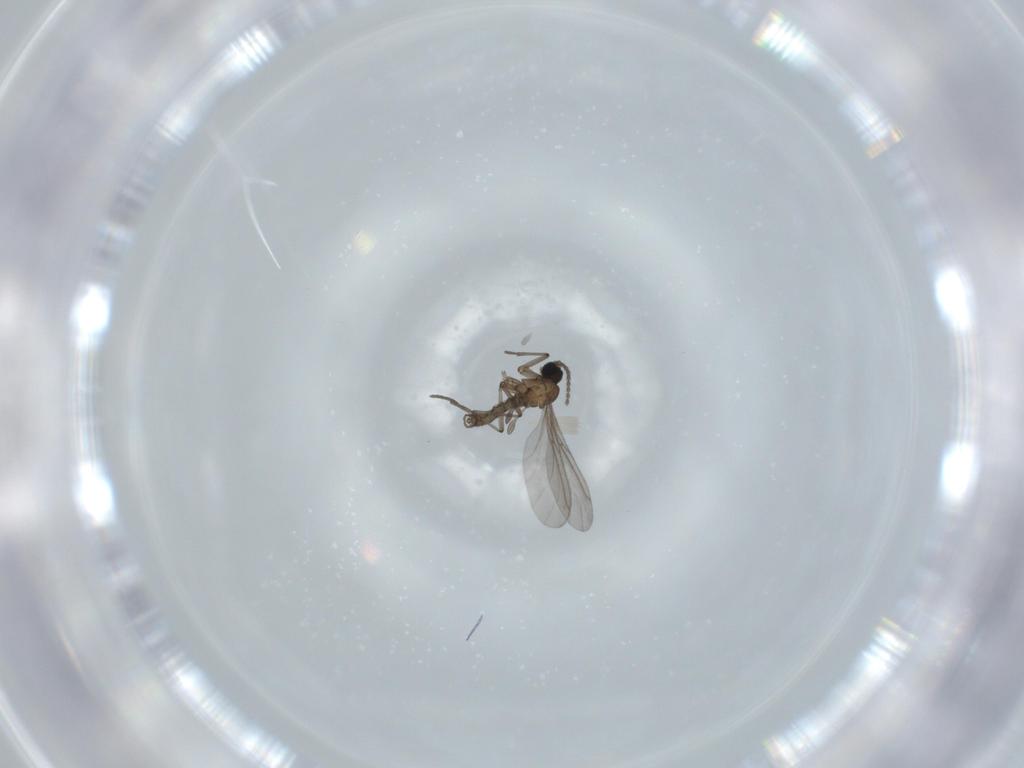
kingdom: Animalia
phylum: Arthropoda
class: Insecta
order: Diptera
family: Sciaridae
